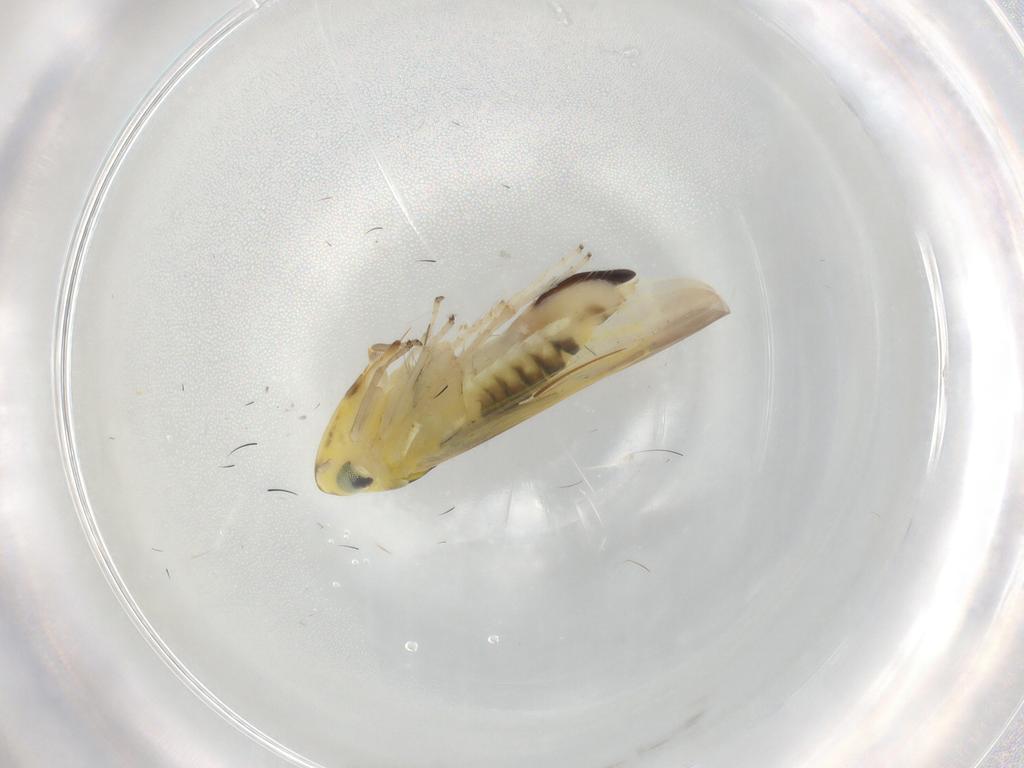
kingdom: Animalia
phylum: Arthropoda
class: Insecta
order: Hemiptera
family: Cicadellidae
